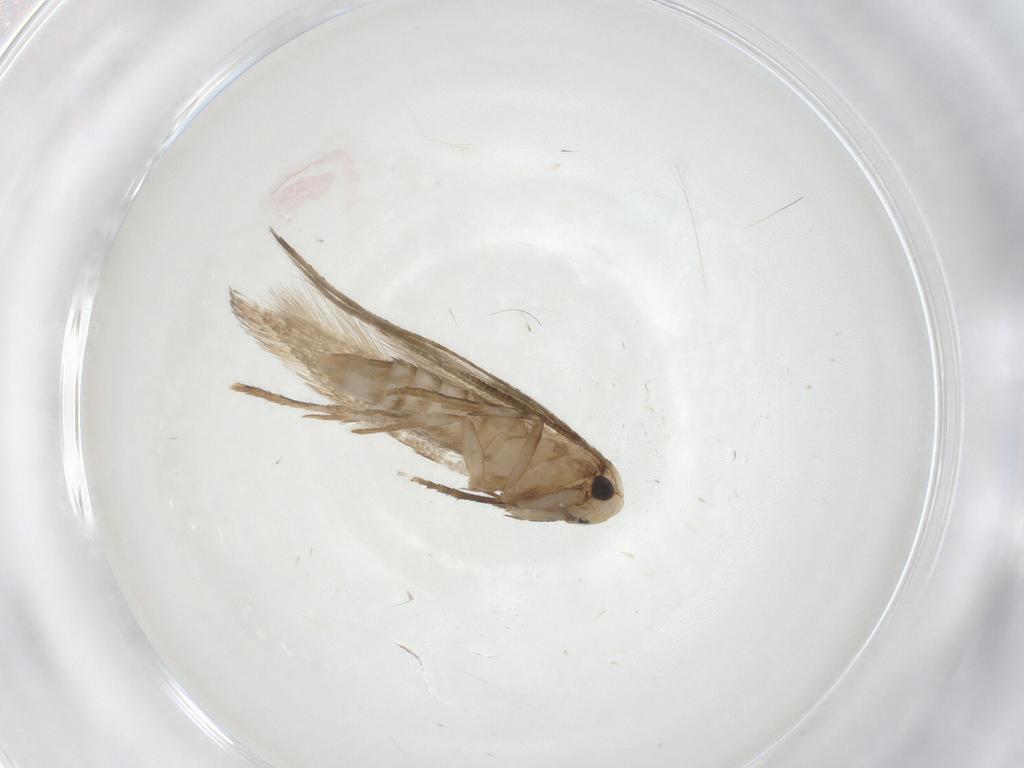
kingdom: Animalia
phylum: Arthropoda
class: Insecta
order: Lepidoptera
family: Tineidae
